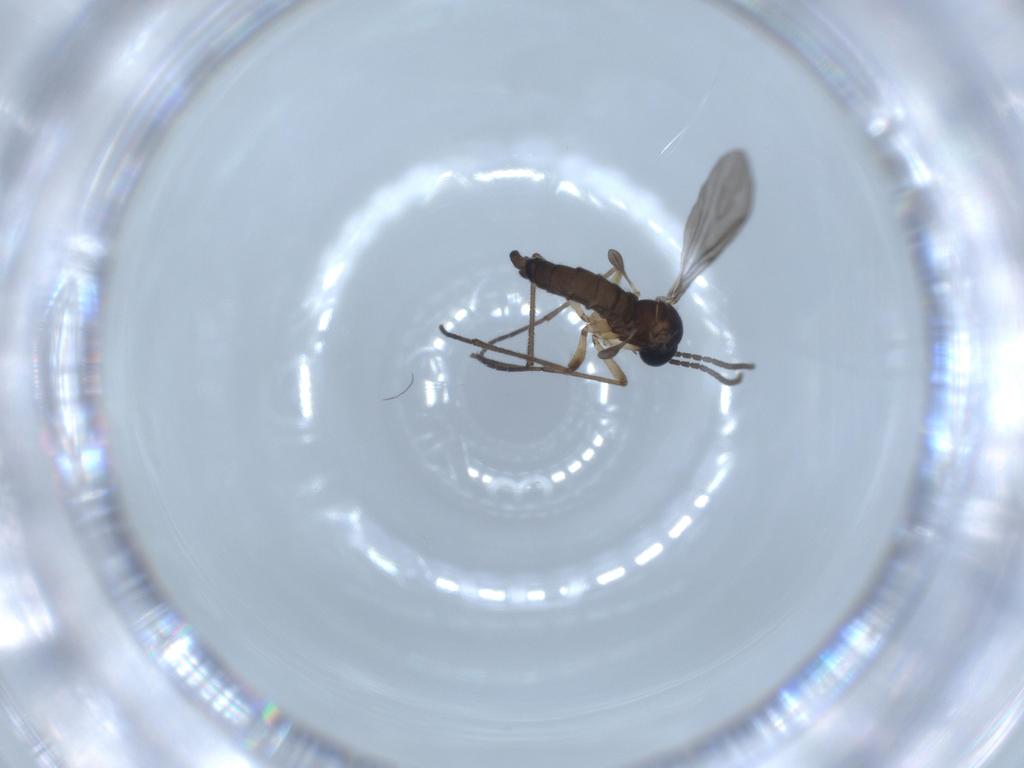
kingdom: Animalia
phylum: Arthropoda
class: Insecta
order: Diptera
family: Sciaridae
